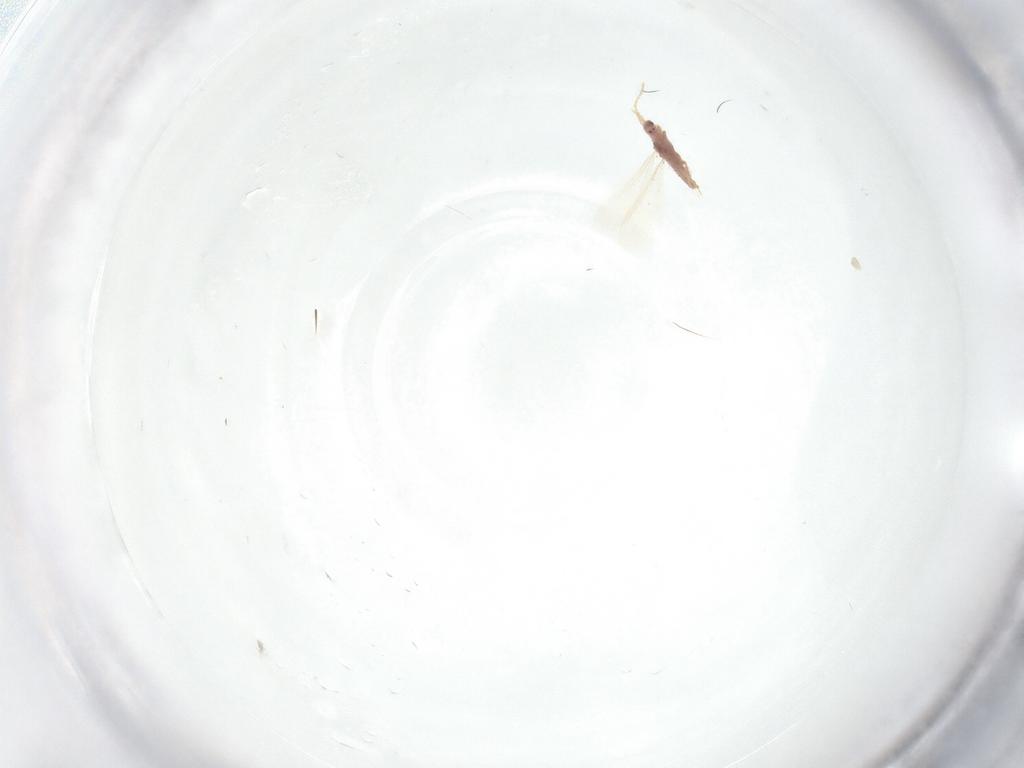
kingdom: Animalia
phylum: Arthropoda
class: Insecta
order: Hemiptera
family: Pseudococcidae
